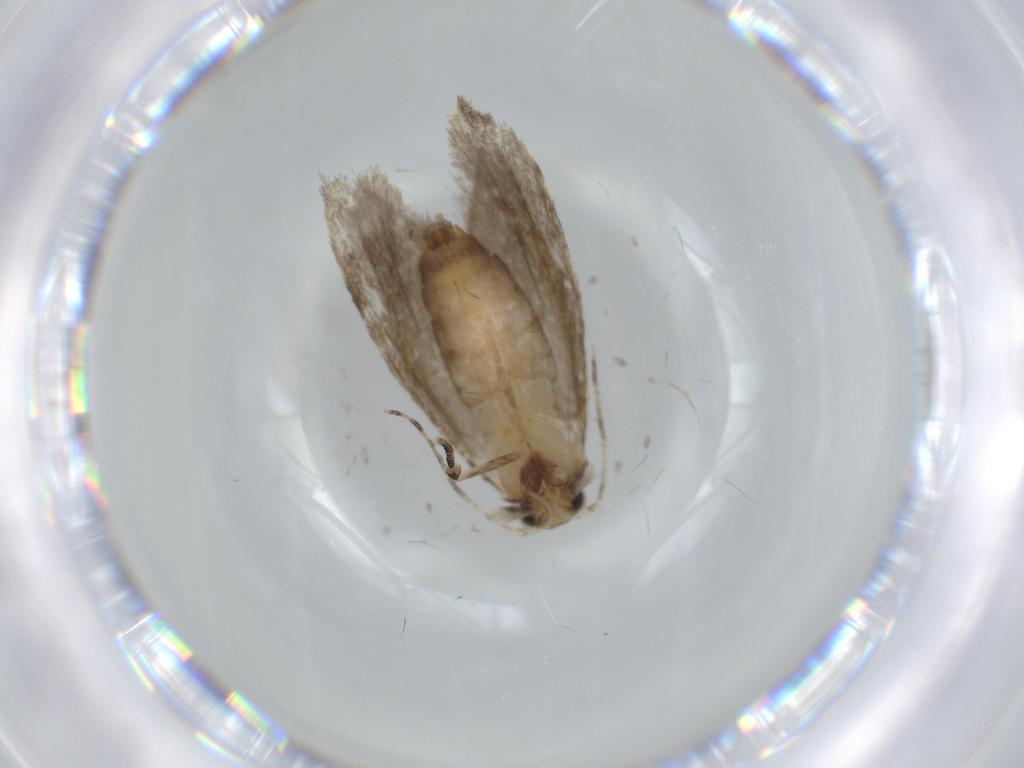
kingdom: Animalia
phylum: Arthropoda
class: Insecta
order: Lepidoptera
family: Tineidae
